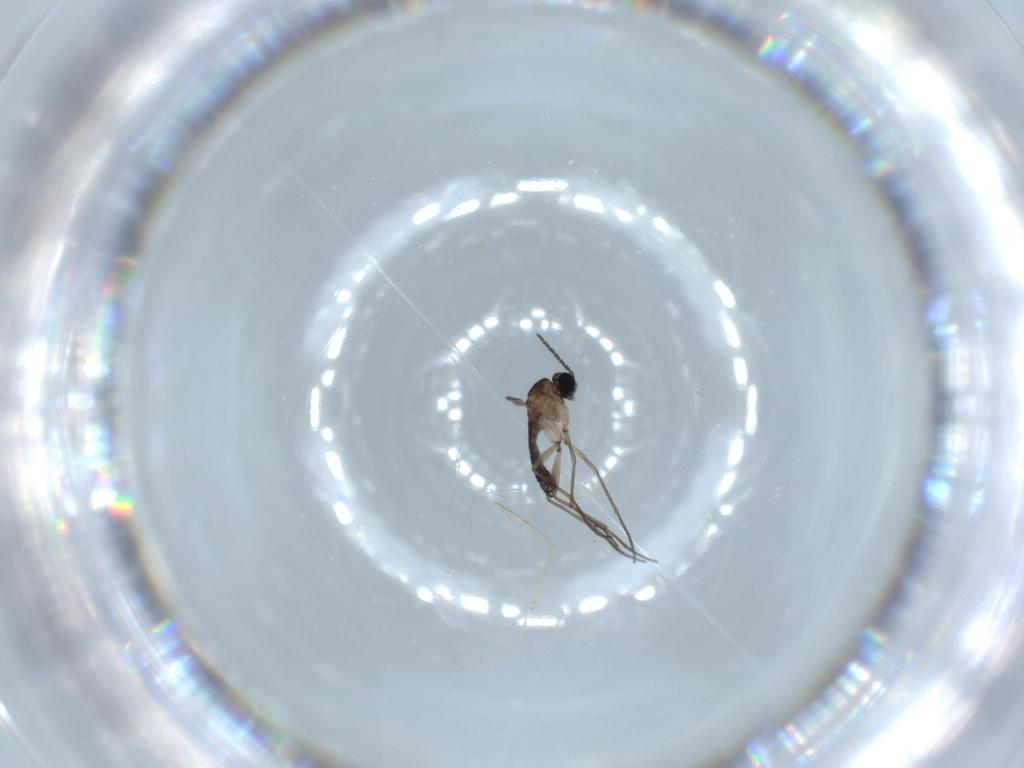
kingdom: Animalia
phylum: Arthropoda
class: Insecta
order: Diptera
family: Sciaridae
